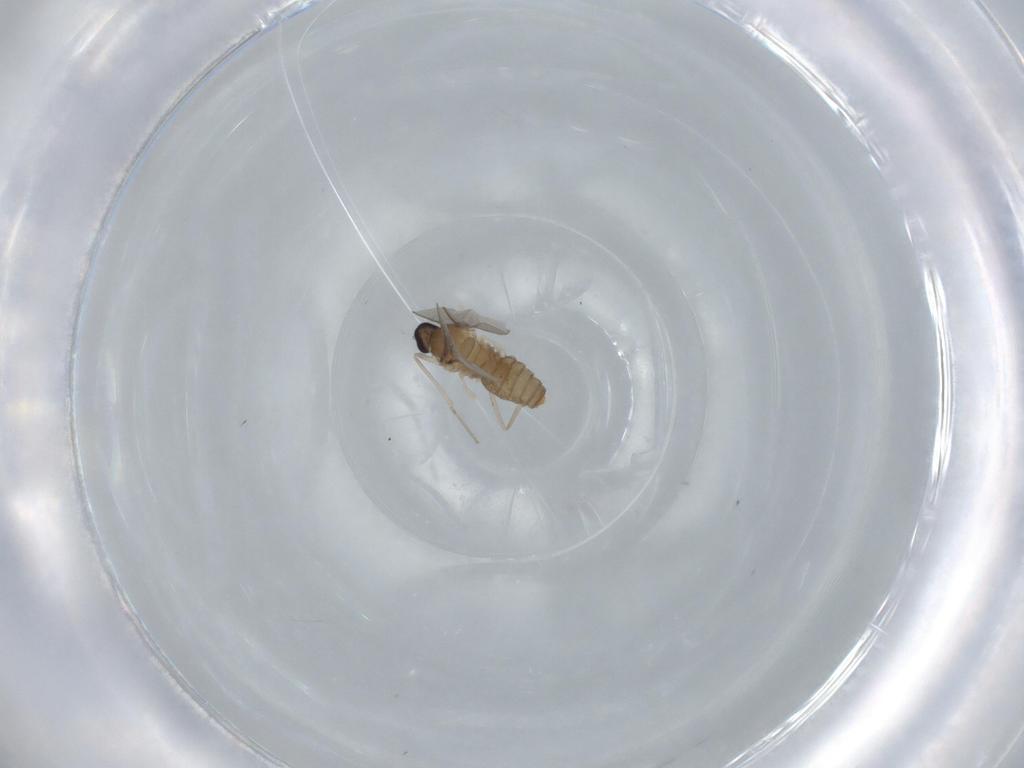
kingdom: Animalia
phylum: Arthropoda
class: Insecta
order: Diptera
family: Cecidomyiidae
